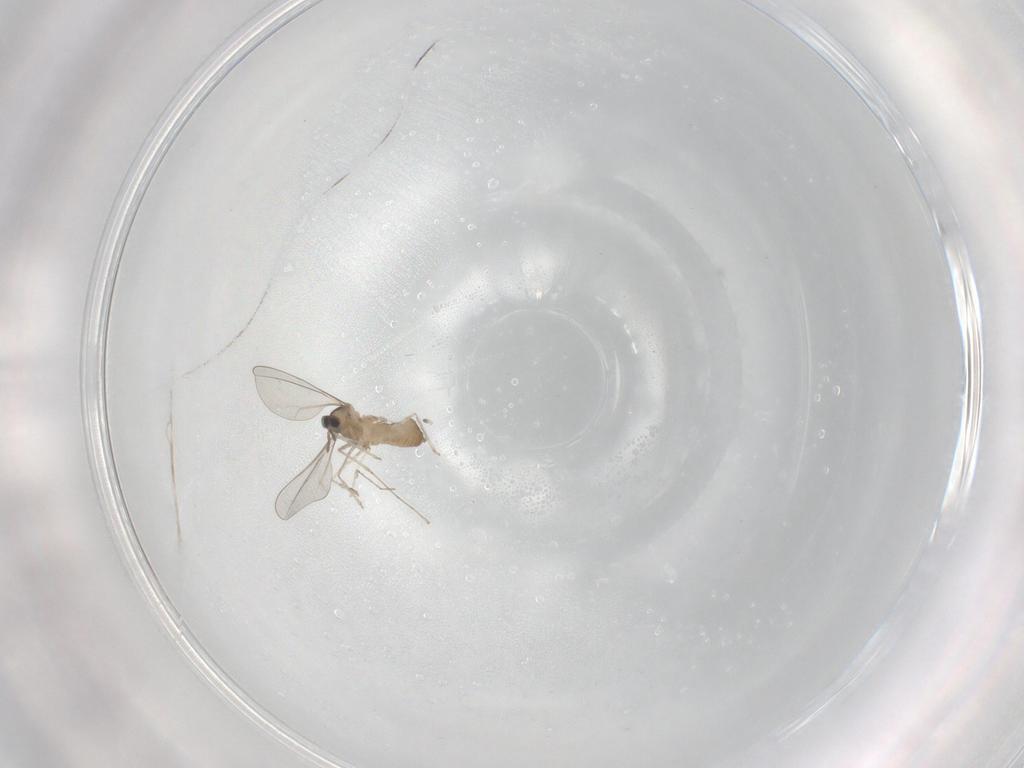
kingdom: Animalia
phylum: Arthropoda
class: Insecta
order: Diptera
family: Cecidomyiidae
